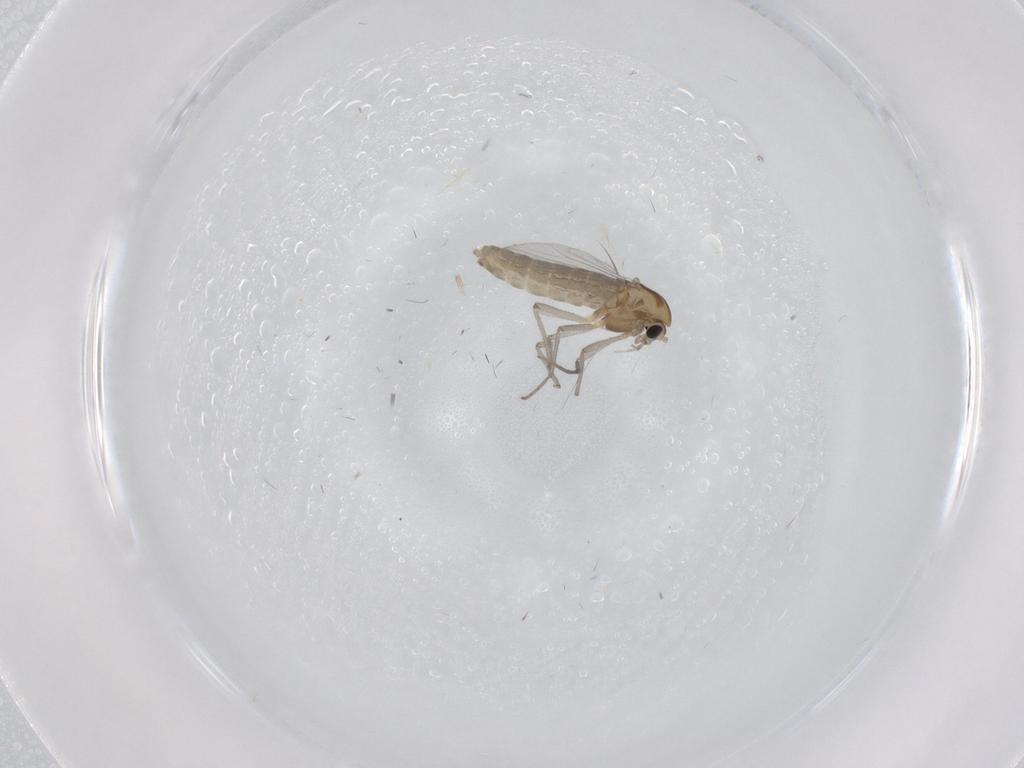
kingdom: Animalia
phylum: Arthropoda
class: Insecta
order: Diptera
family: Chironomidae
